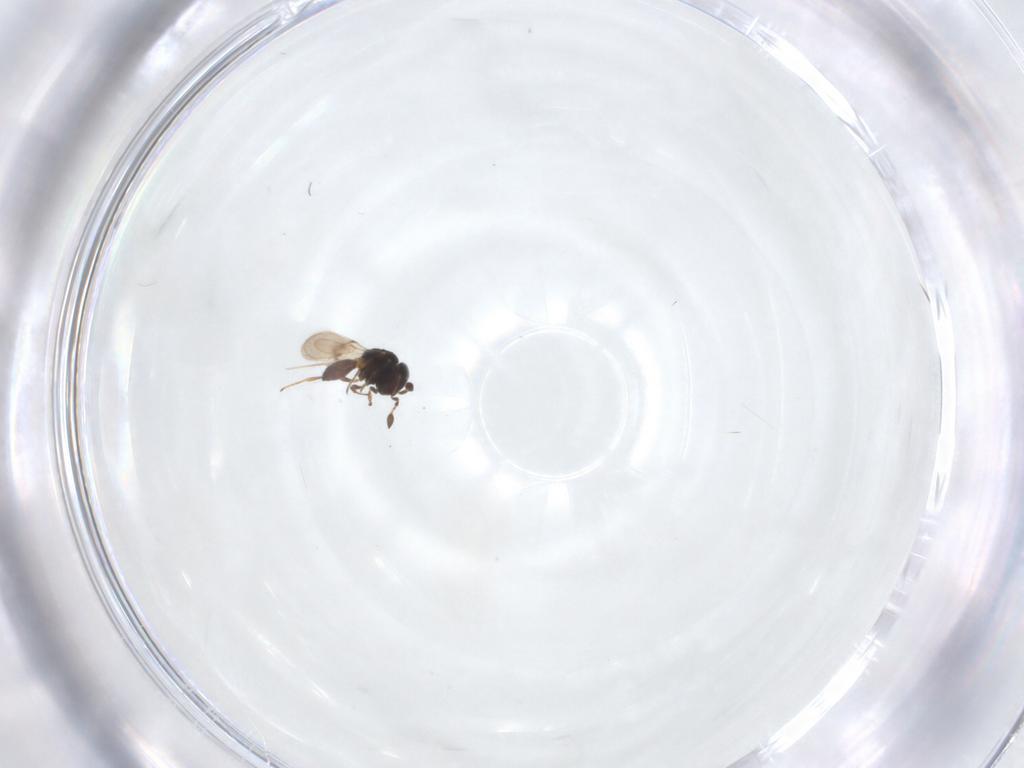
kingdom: Animalia
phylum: Arthropoda
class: Arachnida
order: Araneae
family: Pholcidae
